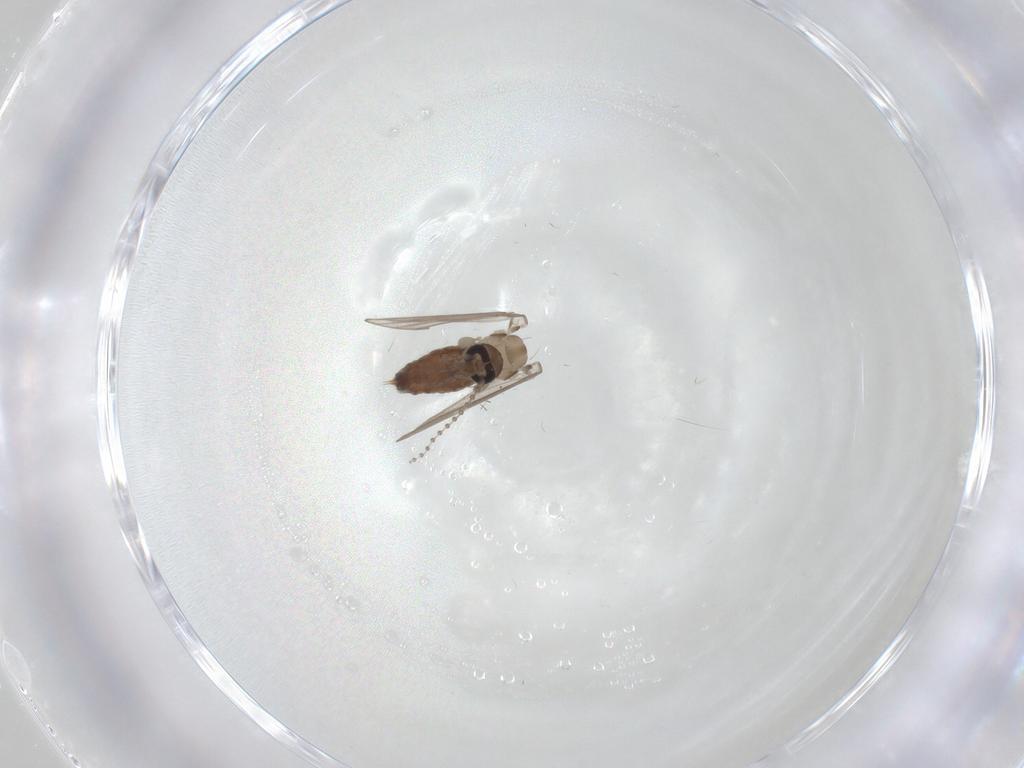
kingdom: Animalia
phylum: Arthropoda
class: Insecta
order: Diptera
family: Psychodidae
